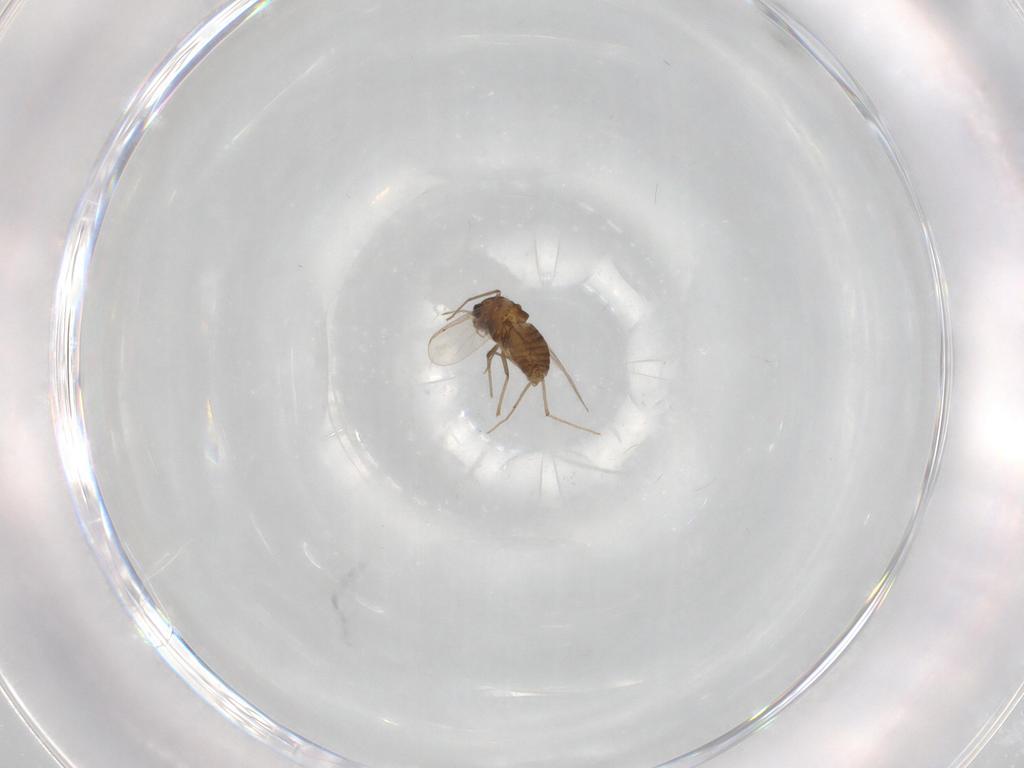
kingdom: Animalia
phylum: Arthropoda
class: Insecta
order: Diptera
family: Chironomidae
